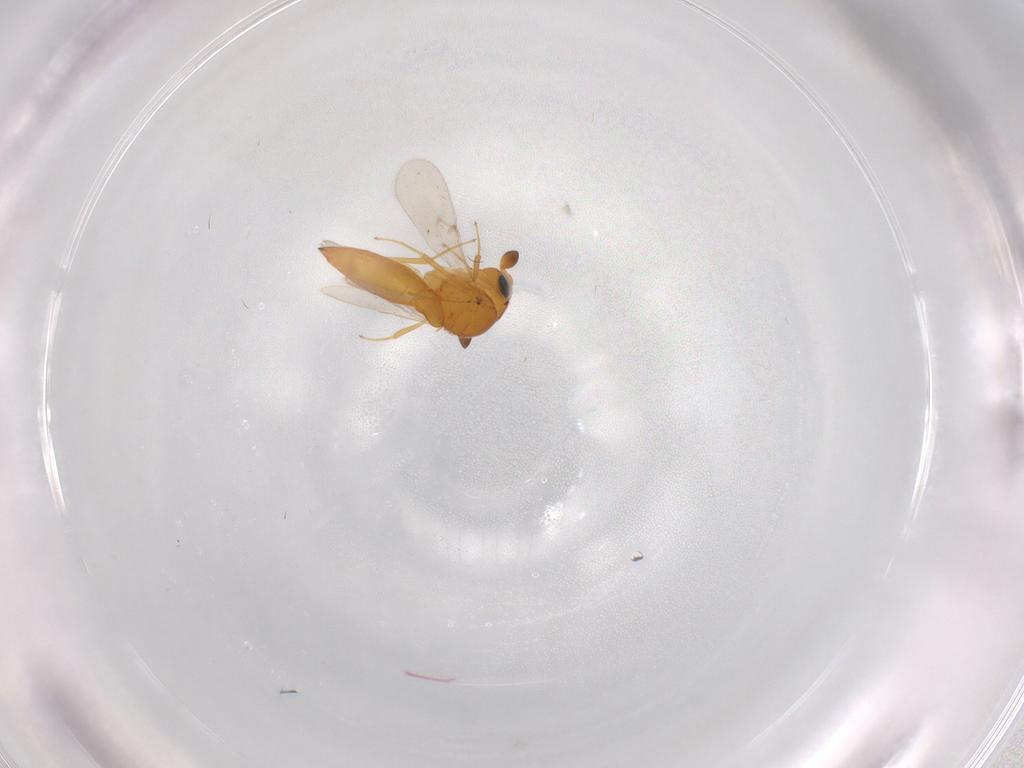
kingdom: Animalia
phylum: Arthropoda
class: Insecta
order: Hymenoptera
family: Scelionidae
